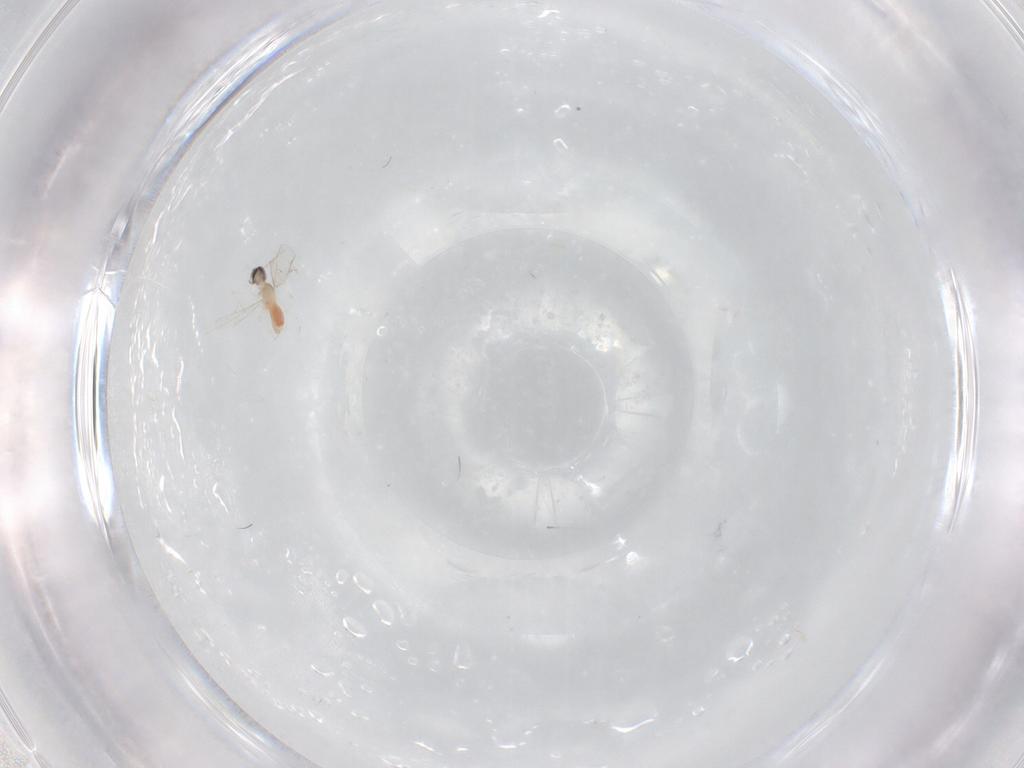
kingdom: Animalia
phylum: Arthropoda
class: Insecta
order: Diptera
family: Cecidomyiidae
